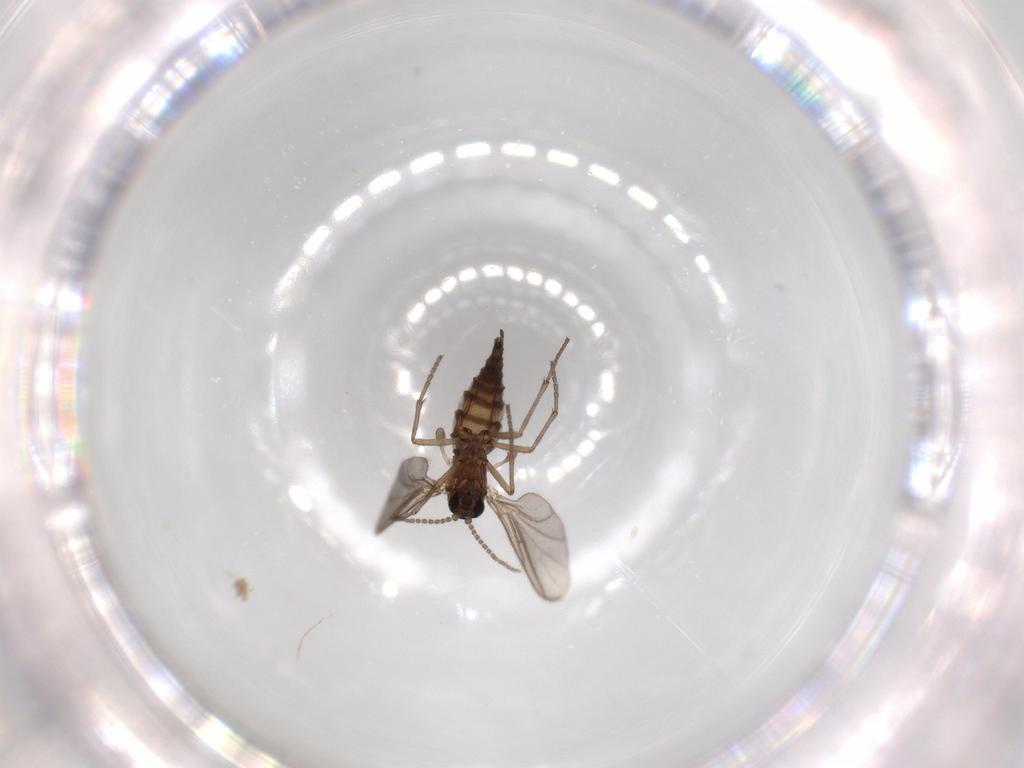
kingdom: Animalia
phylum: Arthropoda
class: Insecta
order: Diptera
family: Sciaridae
